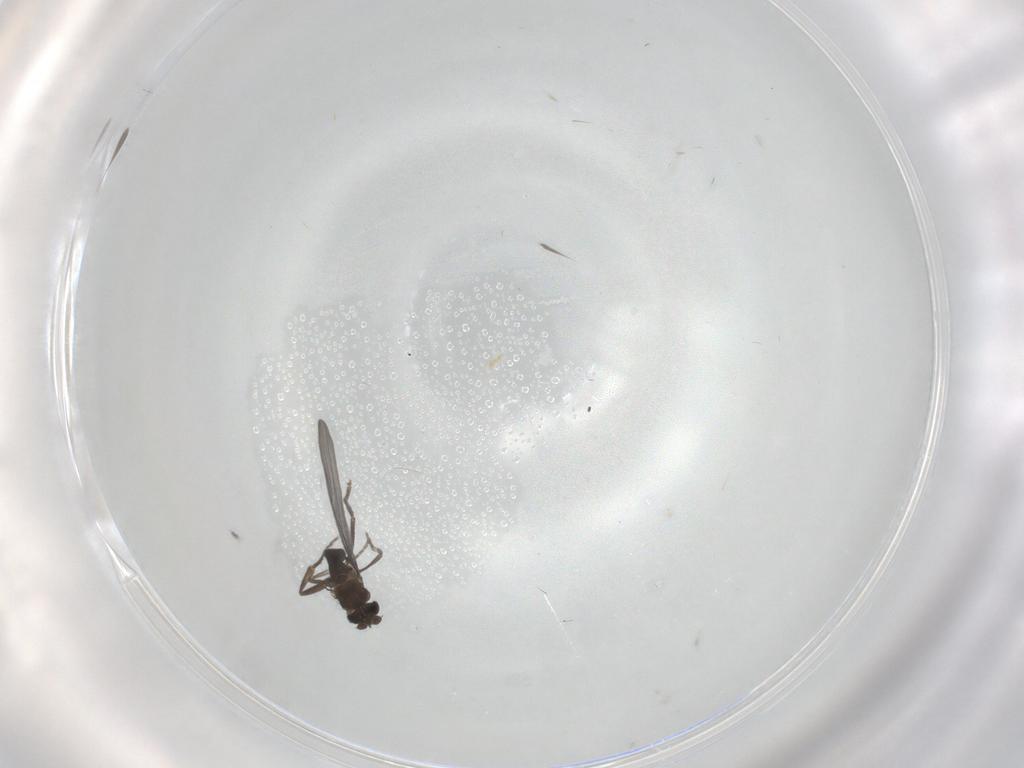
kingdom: Animalia
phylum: Arthropoda
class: Insecta
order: Diptera
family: Phoridae
